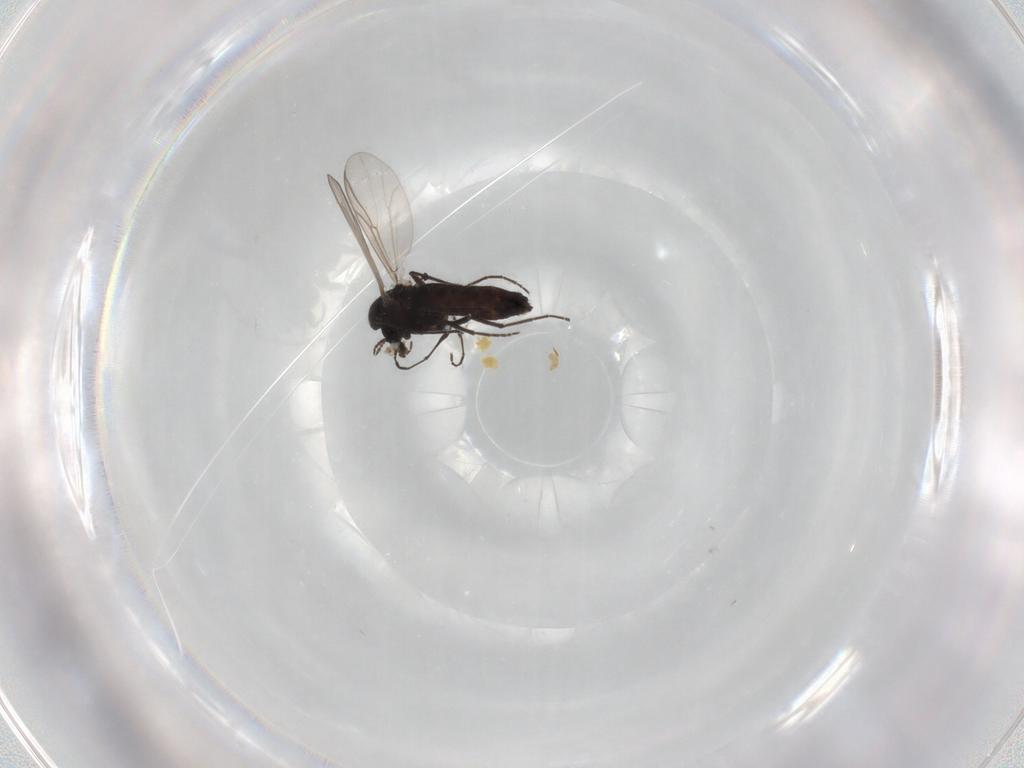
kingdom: Animalia
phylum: Arthropoda
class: Insecta
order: Diptera
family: Chironomidae
